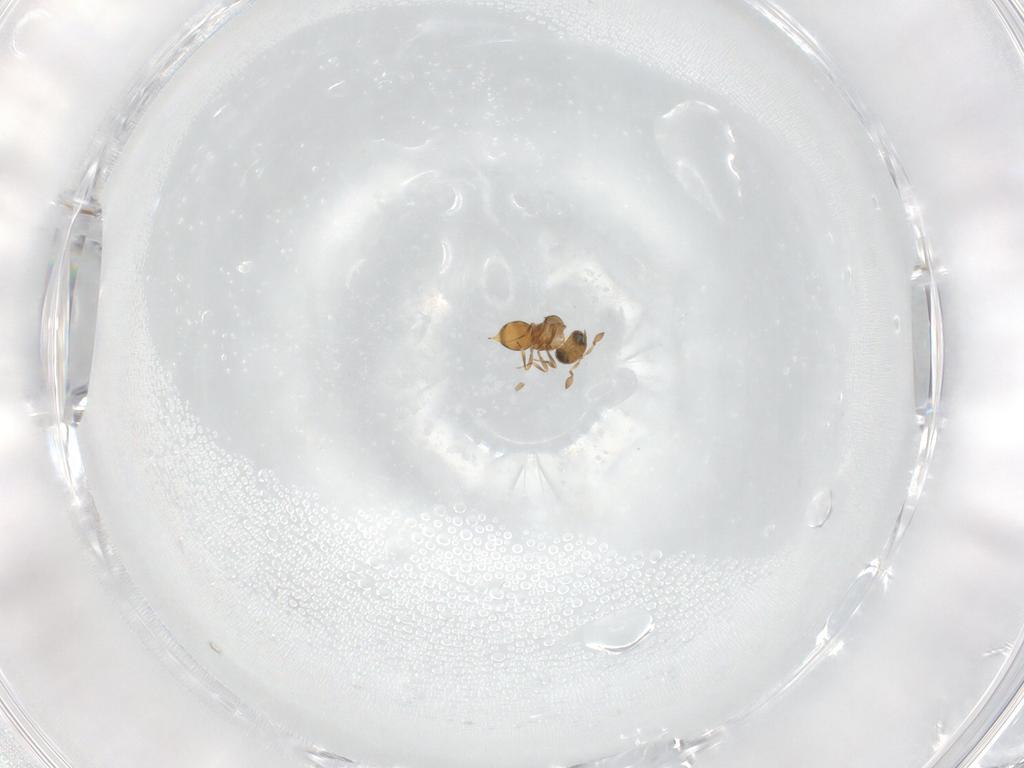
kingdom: Animalia
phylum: Arthropoda
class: Insecta
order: Hymenoptera
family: Scelionidae
